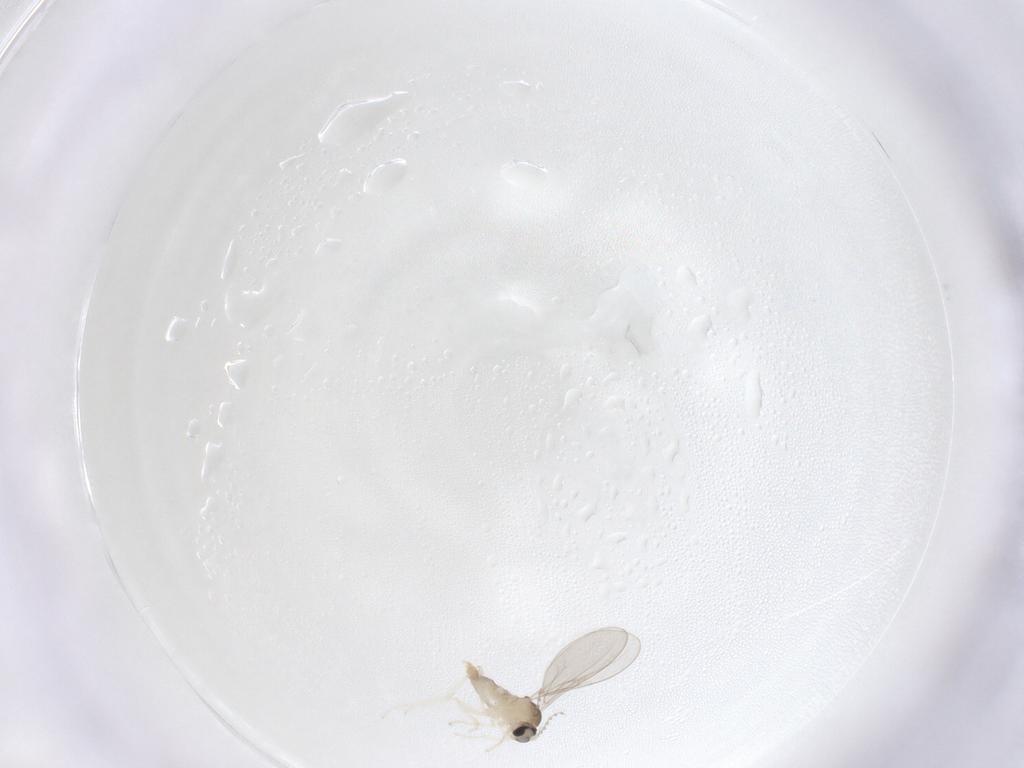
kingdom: Animalia
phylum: Arthropoda
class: Insecta
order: Diptera
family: Cecidomyiidae
